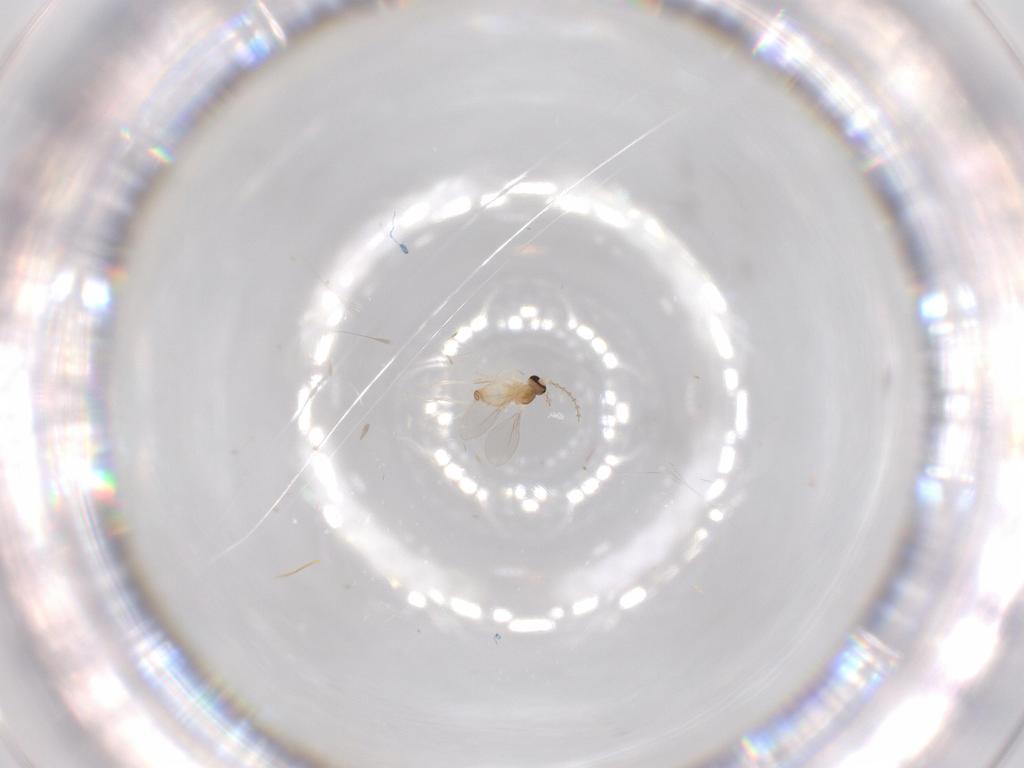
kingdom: Animalia
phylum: Arthropoda
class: Insecta
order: Diptera
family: Cecidomyiidae
